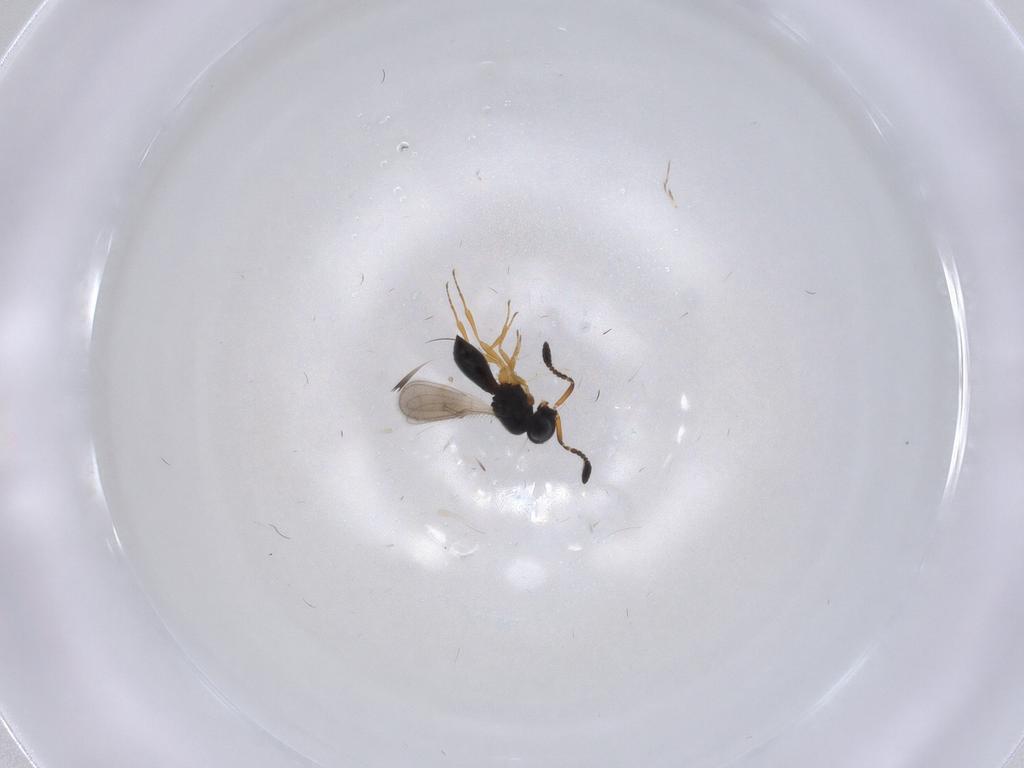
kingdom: Animalia
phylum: Arthropoda
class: Insecta
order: Hymenoptera
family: Scelionidae
